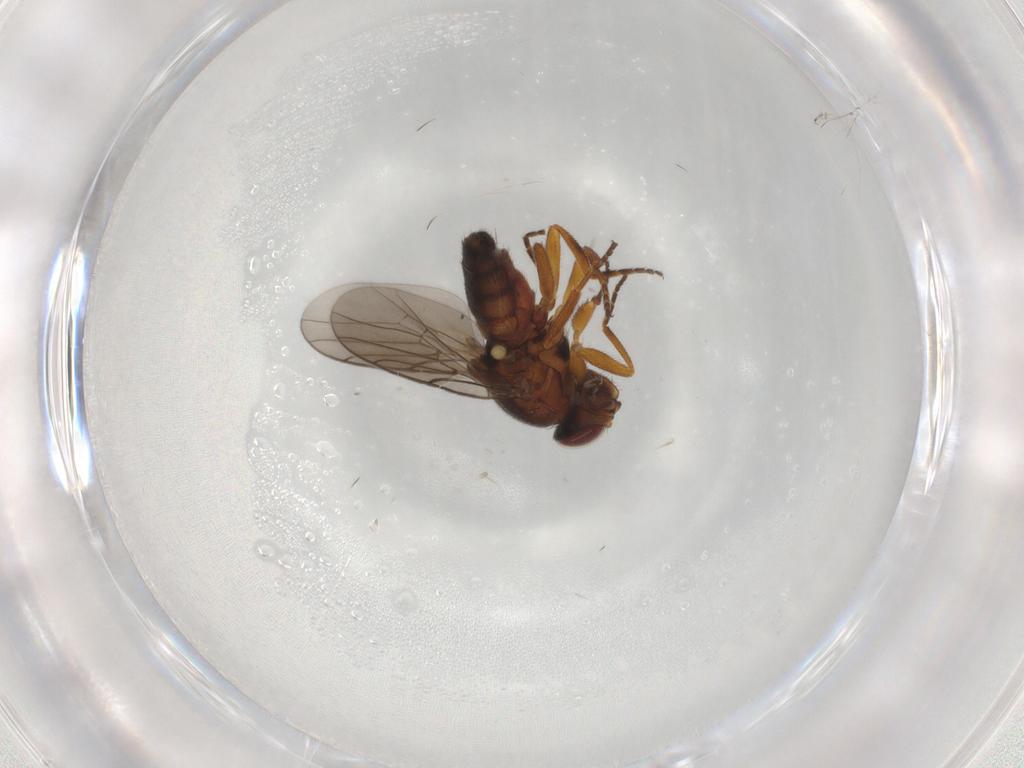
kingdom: Animalia
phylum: Arthropoda
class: Insecta
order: Diptera
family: Chloropidae
